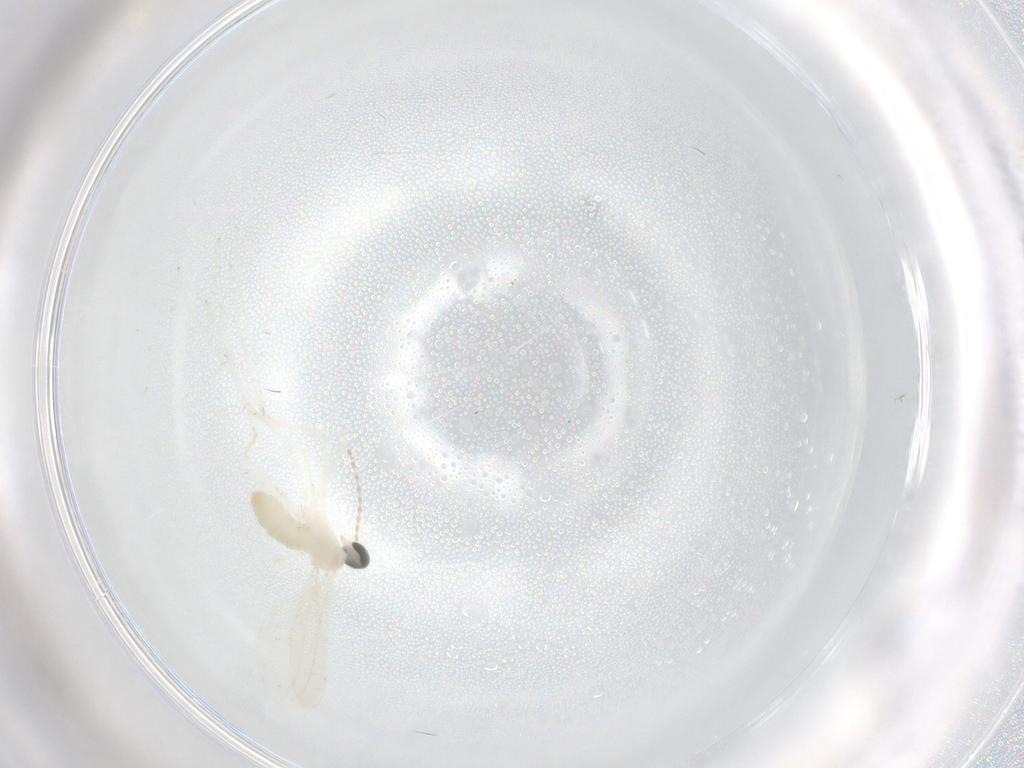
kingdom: Animalia
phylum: Arthropoda
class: Insecta
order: Diptera
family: Cecidomyiidae
